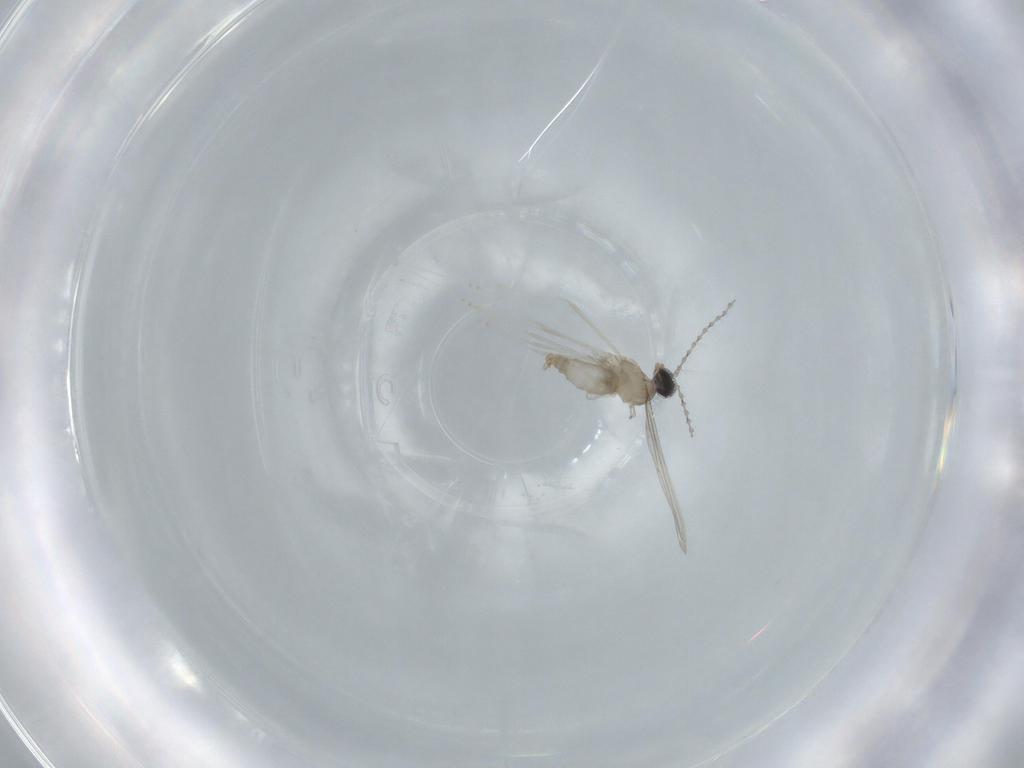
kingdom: Animalia
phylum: Arthropoda
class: Insecta
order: Diptera
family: Cecidomyiidae
